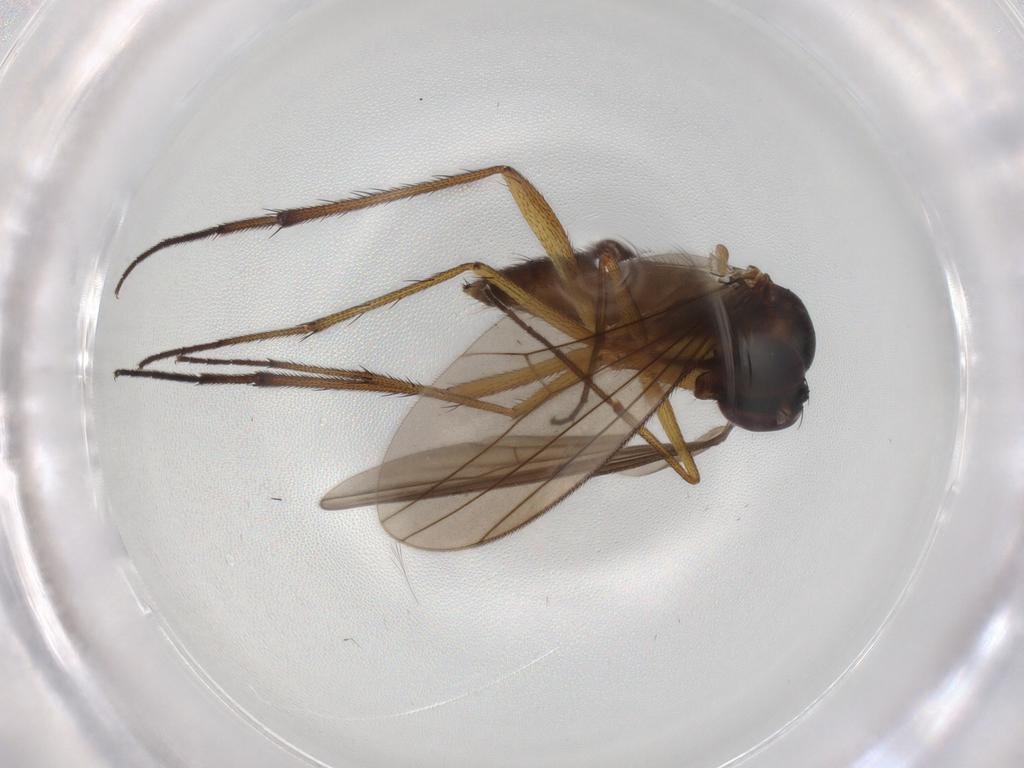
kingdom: Animalia
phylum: Arthropoda
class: Insecta
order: Diptera
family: Dolichopodidae
